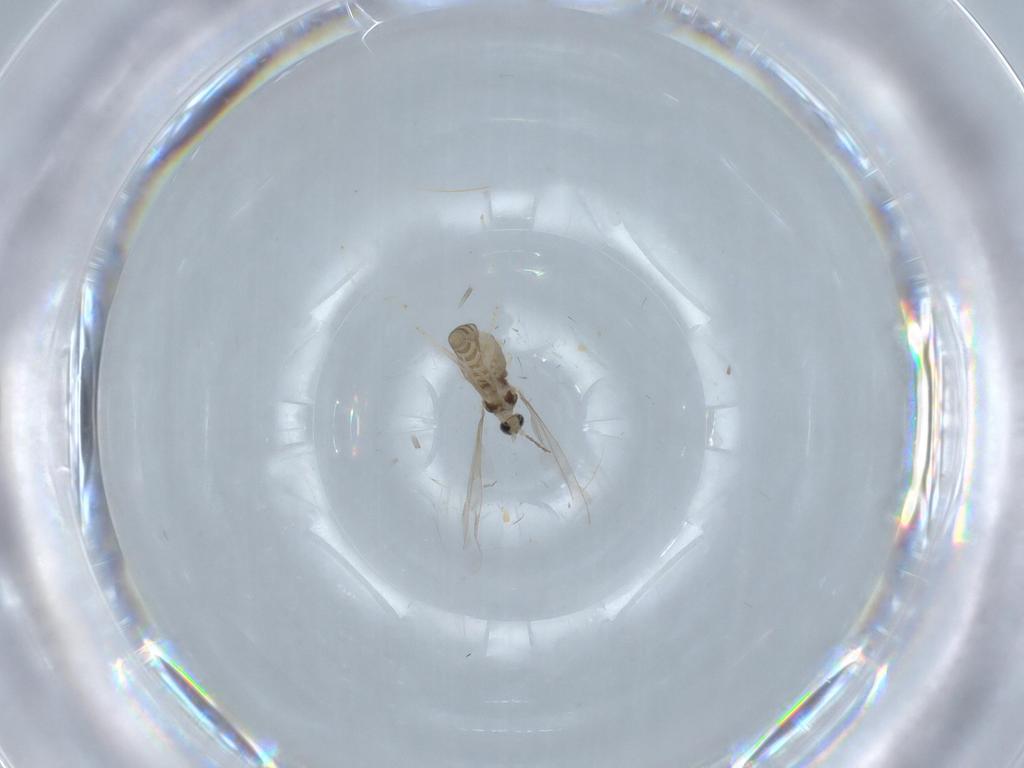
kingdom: Animalia
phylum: Arthropoda
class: Insecta
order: Diptera
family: Cecidomyiidae
